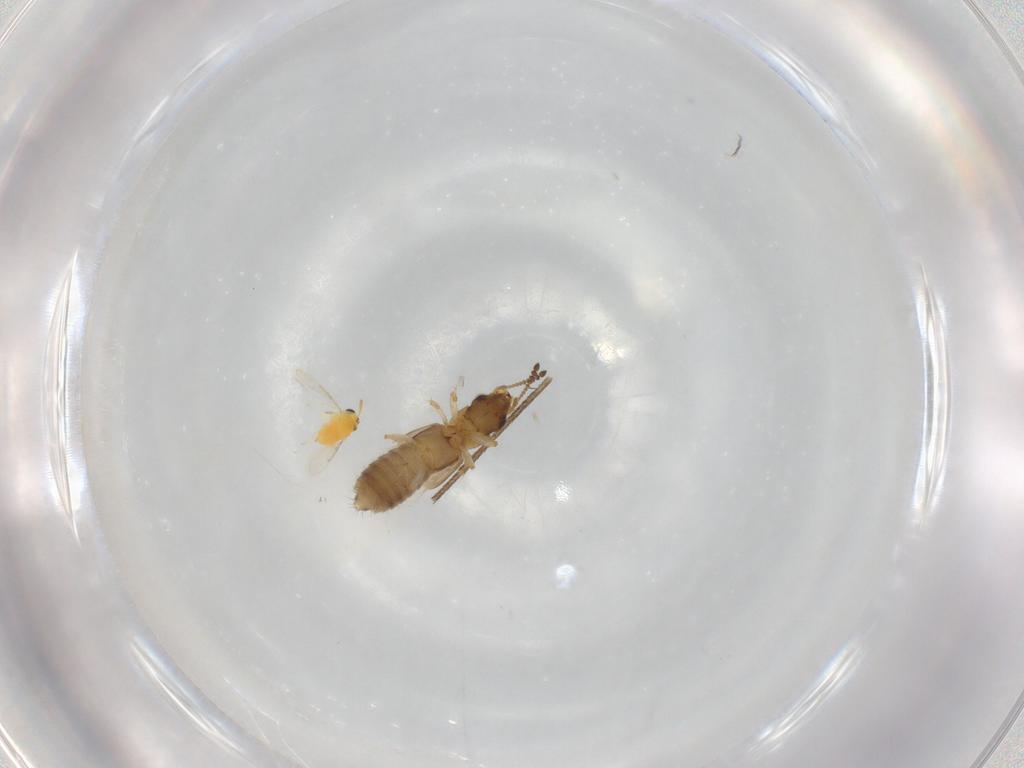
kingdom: Animalia
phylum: Arthropoda
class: Insecta
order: Coleoptera
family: Staphylinidae
